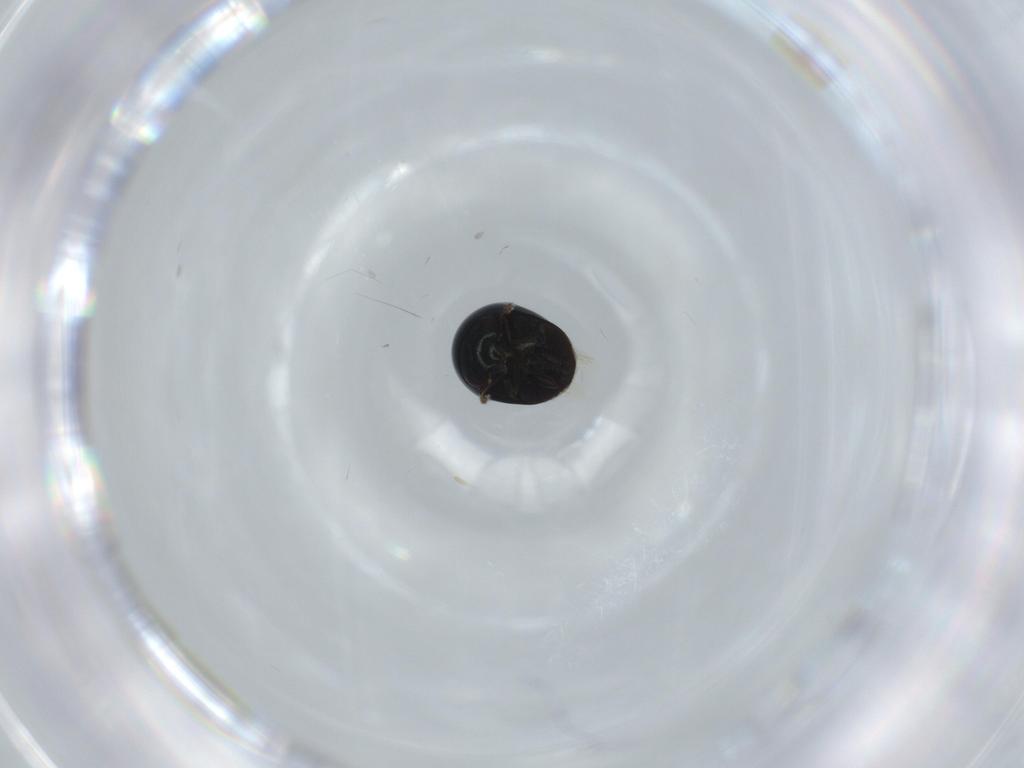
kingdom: Animalia
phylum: Arthropoda
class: Insecta
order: Coleoptera
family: Cybocephalidae
